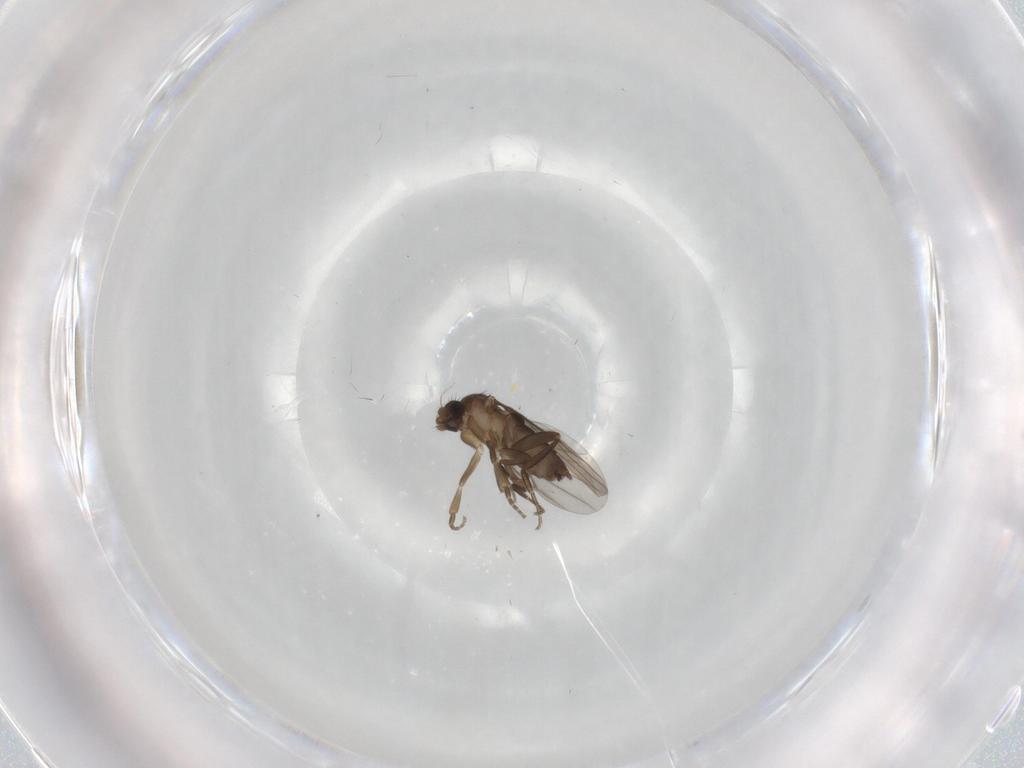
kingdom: Animalia
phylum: Arthropoda
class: Insecta
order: Diptera
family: Phoridae
